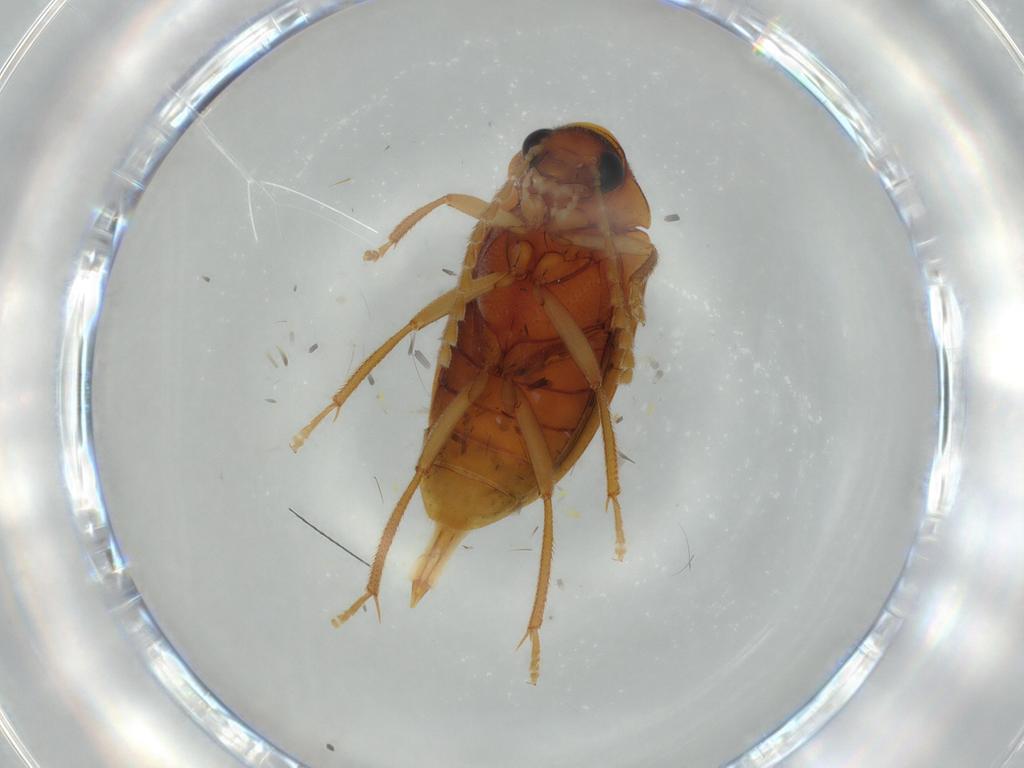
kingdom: Animalia
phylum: Arthropoda
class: Insecta
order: Coleoptera
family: Ptilodactylidae
